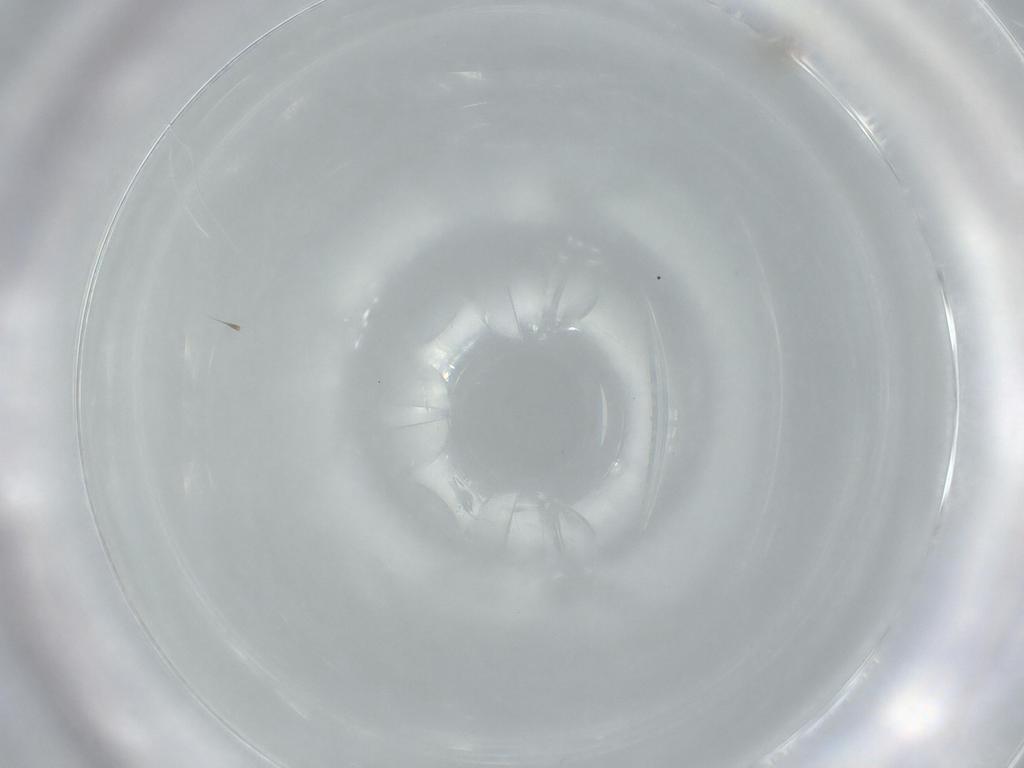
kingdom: Animalia
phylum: Arthropoda
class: Insecta
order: Diptera
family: Cecidomyiidae
